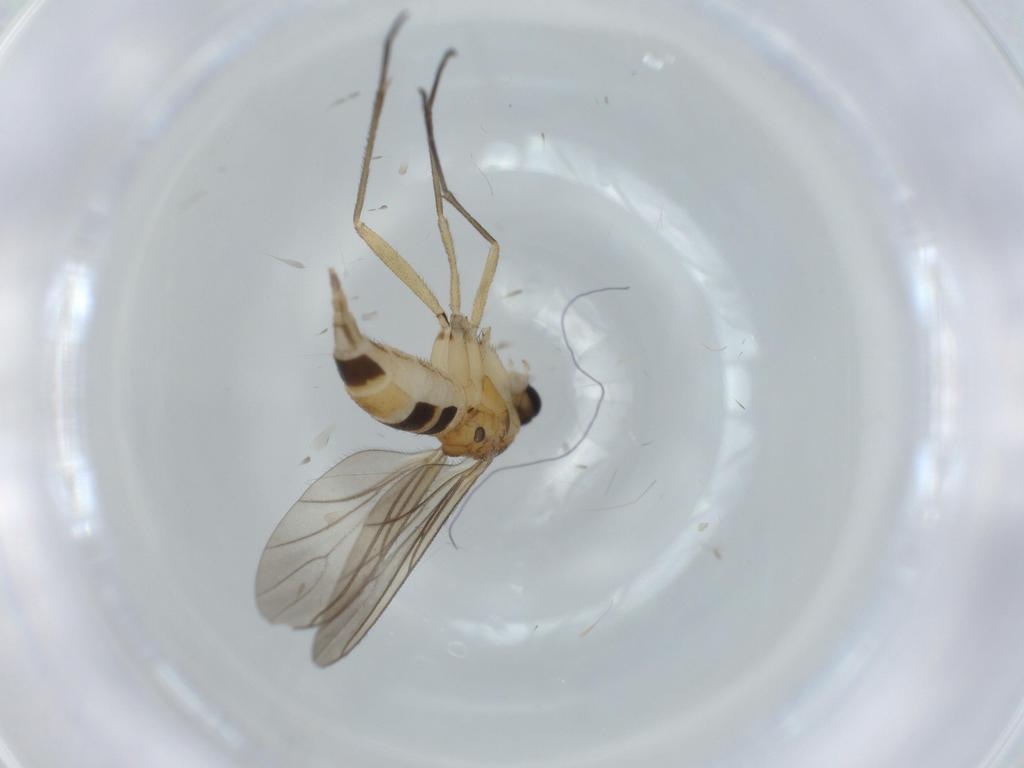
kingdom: Animalia
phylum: Arthropoda
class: Insecta
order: Diptera
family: Sciaridae
